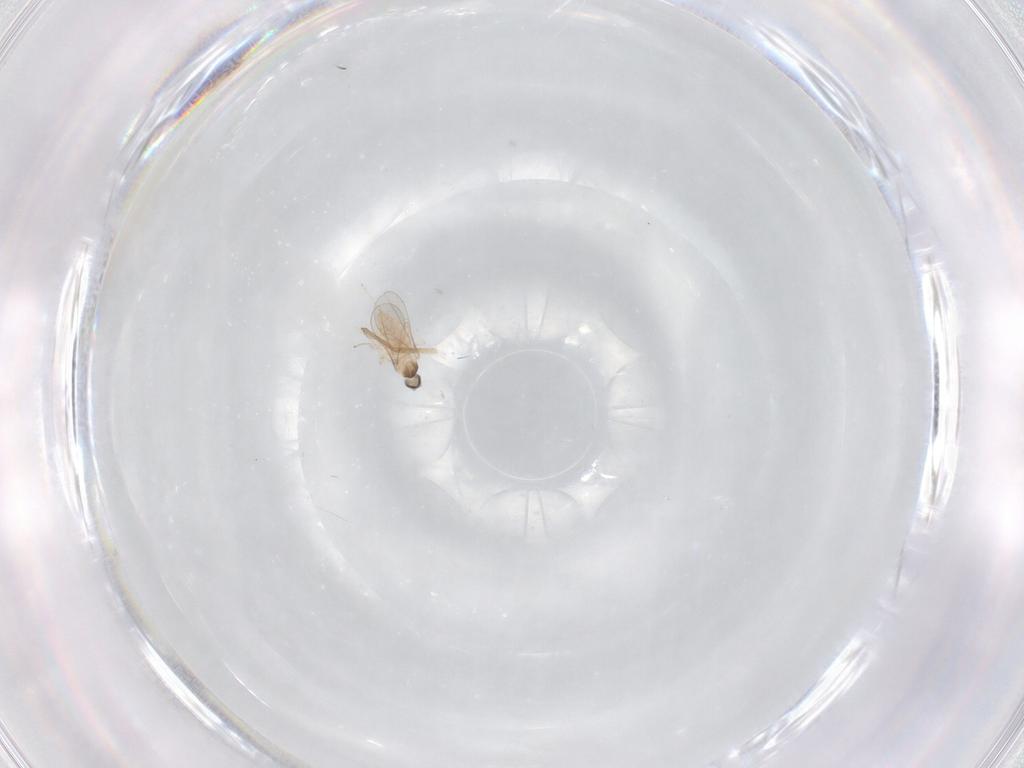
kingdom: Animalia
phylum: Arthropoda
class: Insecta
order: Diptera
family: Cecidomyiidae
